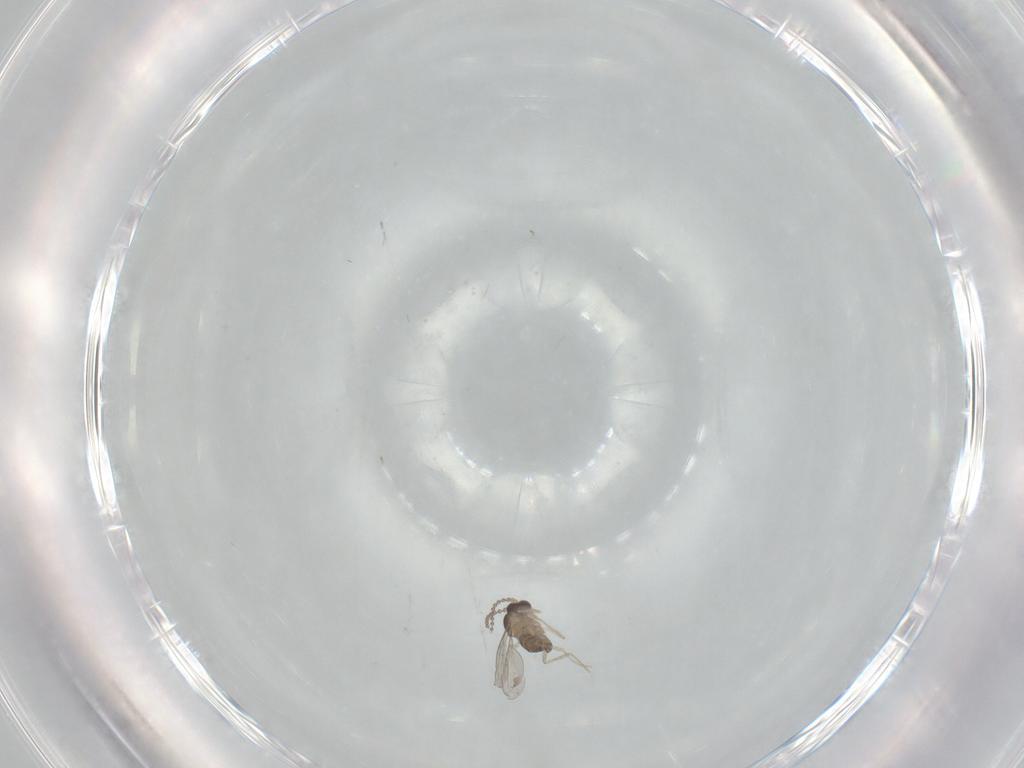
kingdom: Animalia
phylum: Arthropoda
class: Insecta
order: Diptera
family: Cecidomyiidae
